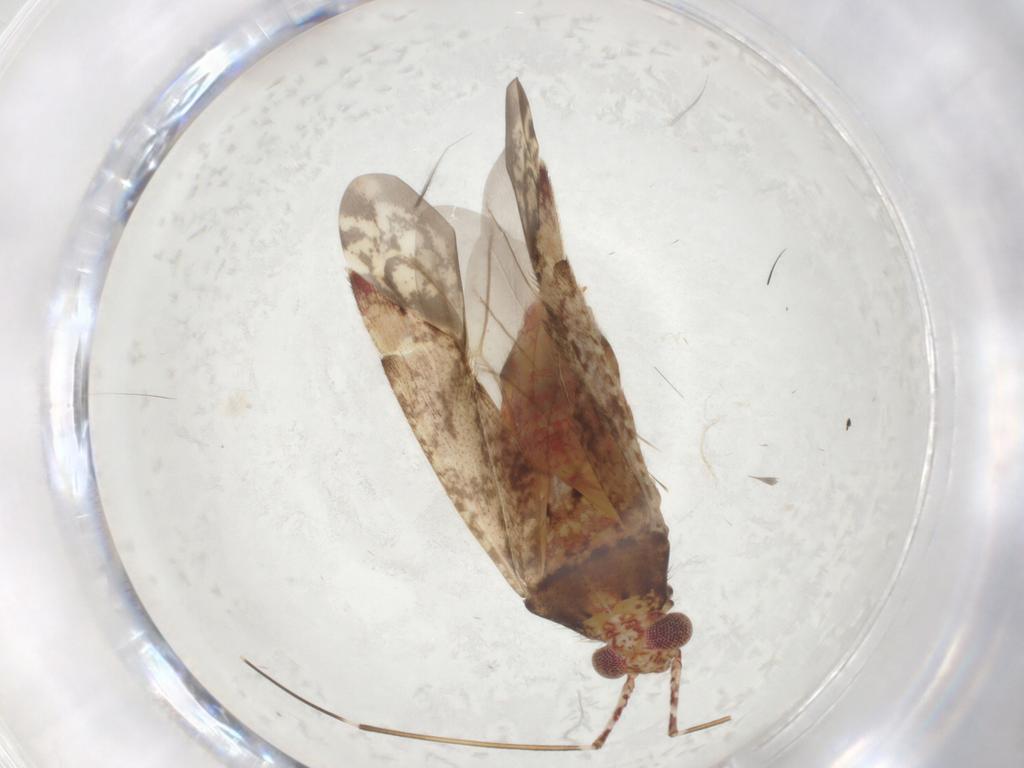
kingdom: Animalia
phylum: Arthropoda
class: Insecta
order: Hemiptera
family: Miridae
